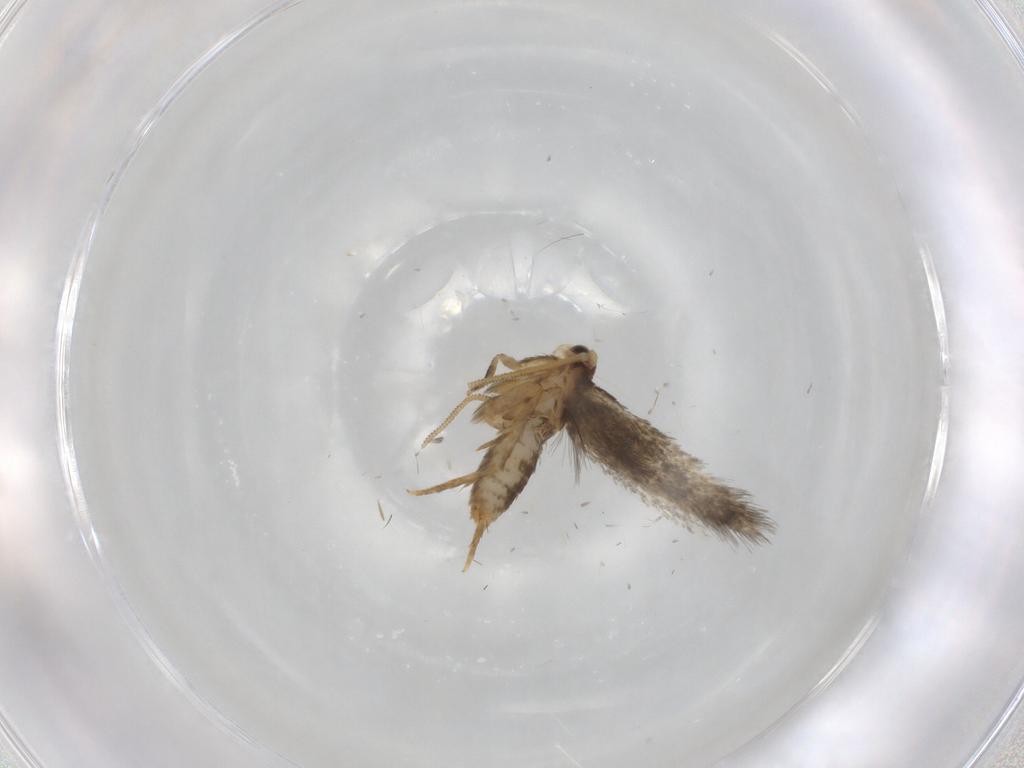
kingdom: Animalia
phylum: Arthropoda
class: Insecta
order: Lepidoptera
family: Nepticulidae
